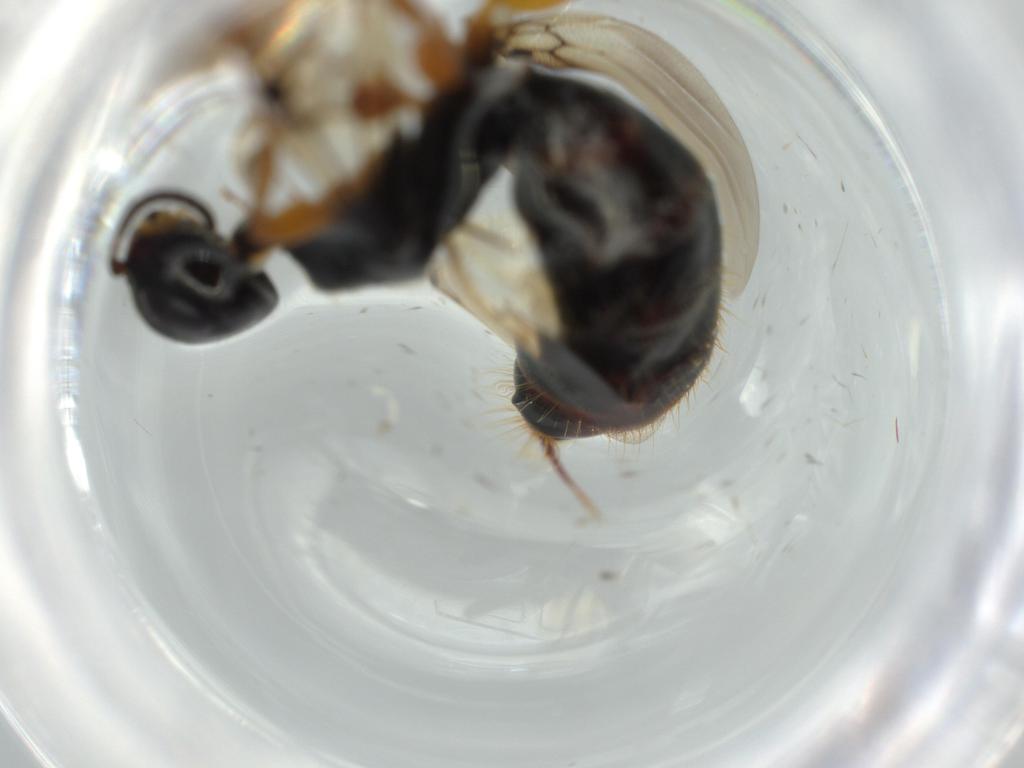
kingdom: Animalia
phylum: Arthropoda
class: Insecta
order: Hymenoptera
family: Scolebythidae
